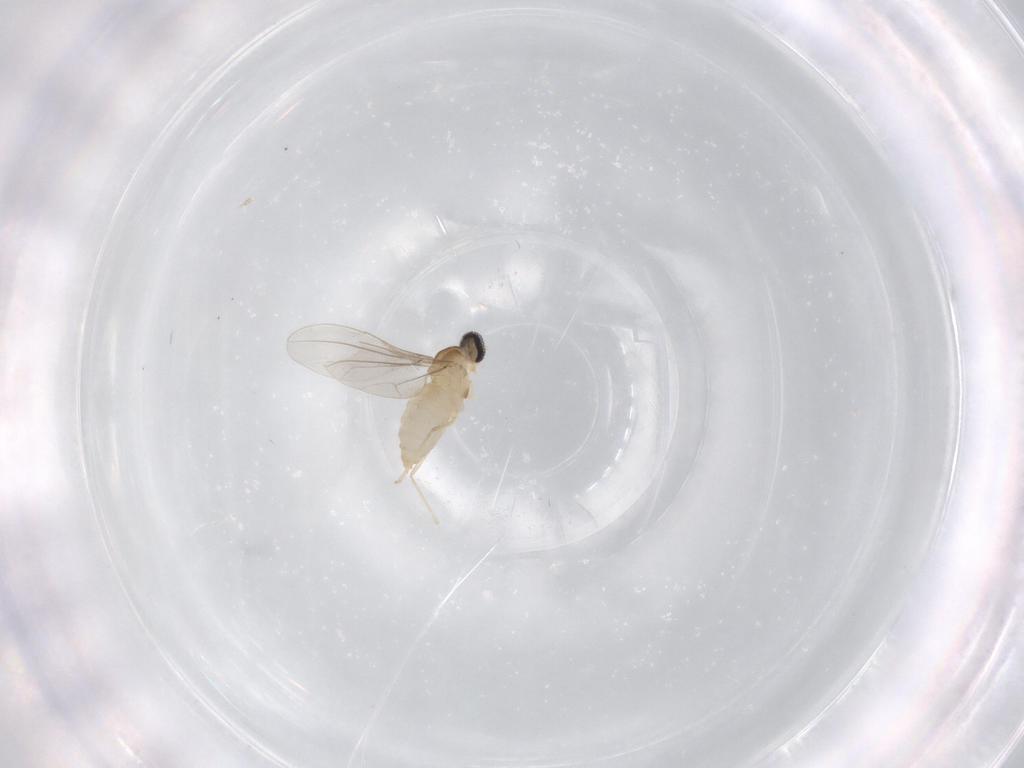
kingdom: Animalia
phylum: Arthropoda
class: Insecta
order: Diptera
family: Cecidomyiidae
